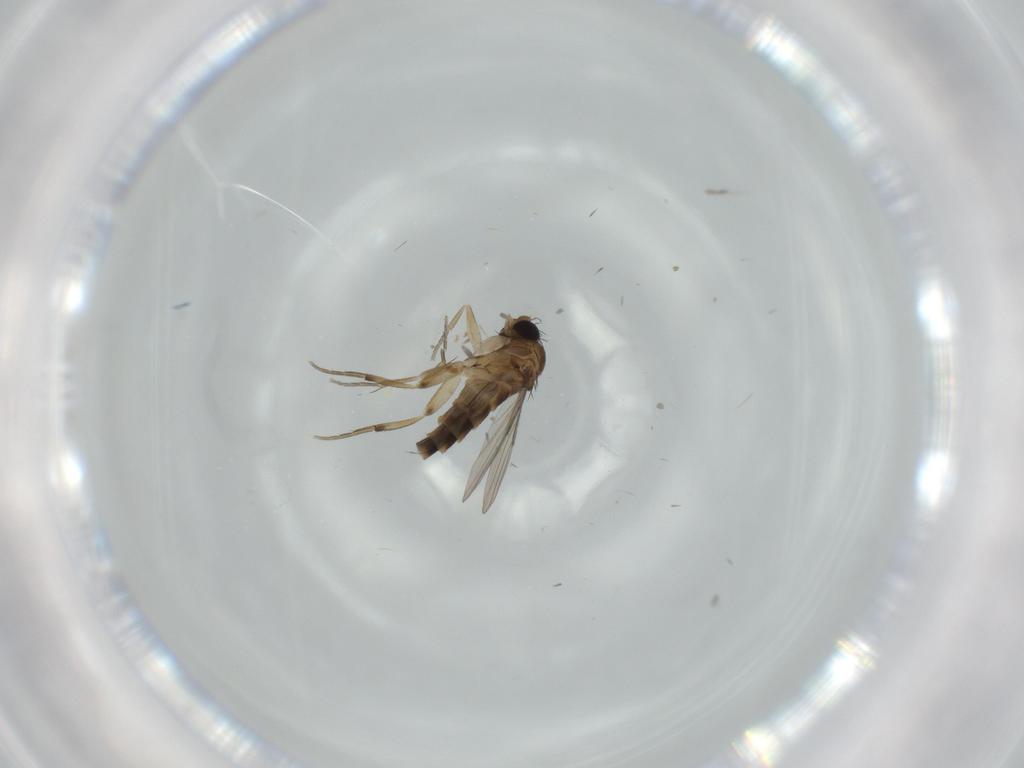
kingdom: Animalia
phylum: Arthropoda
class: Insecta
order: Diptera
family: Phoridae
